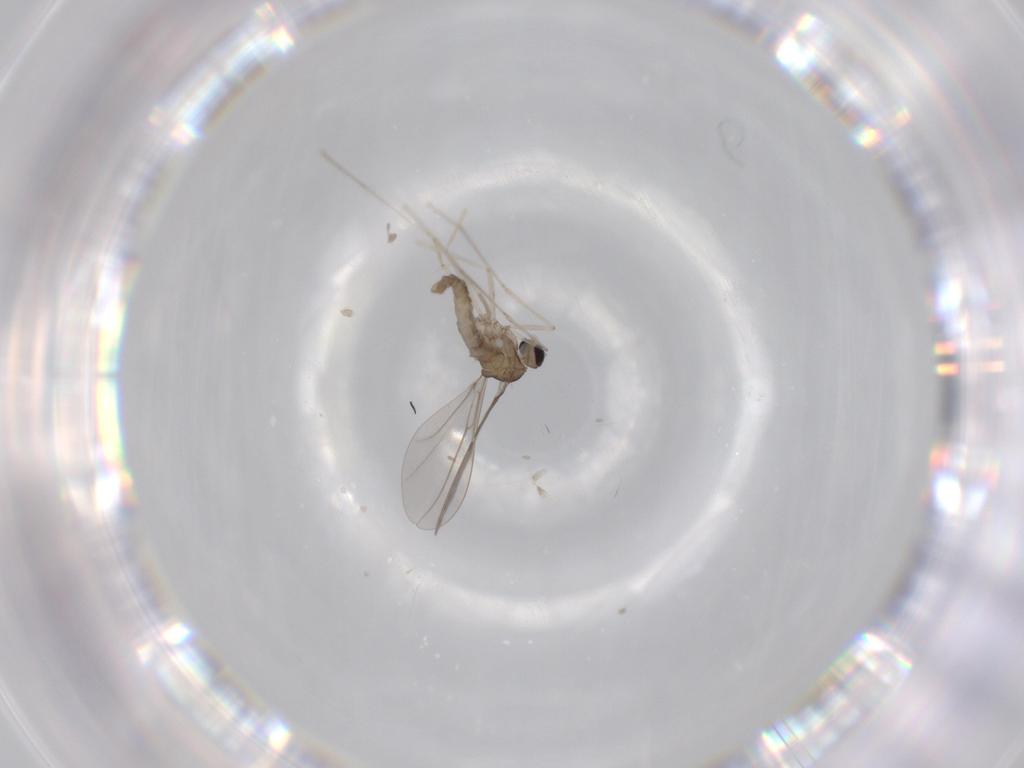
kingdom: Animalia
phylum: Arthropoda
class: Insecta
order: Diptera
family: Cecidomyiidae
